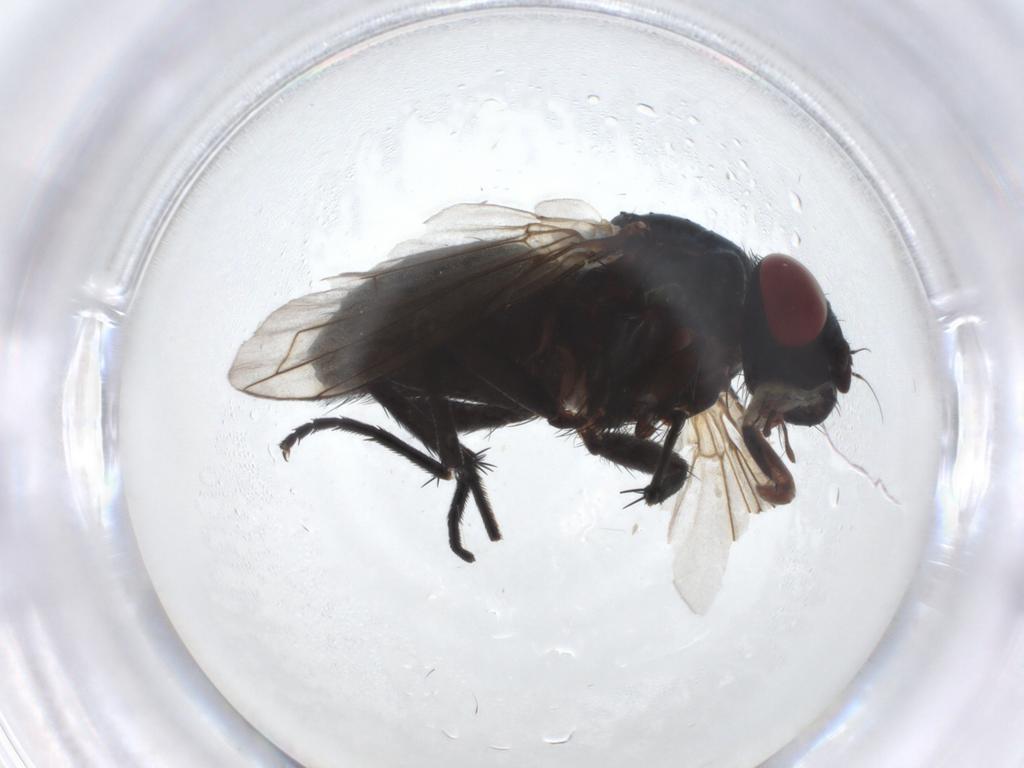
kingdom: Animalia
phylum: Arthropoda
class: Insecta
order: Diptera
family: Calliphoridae
